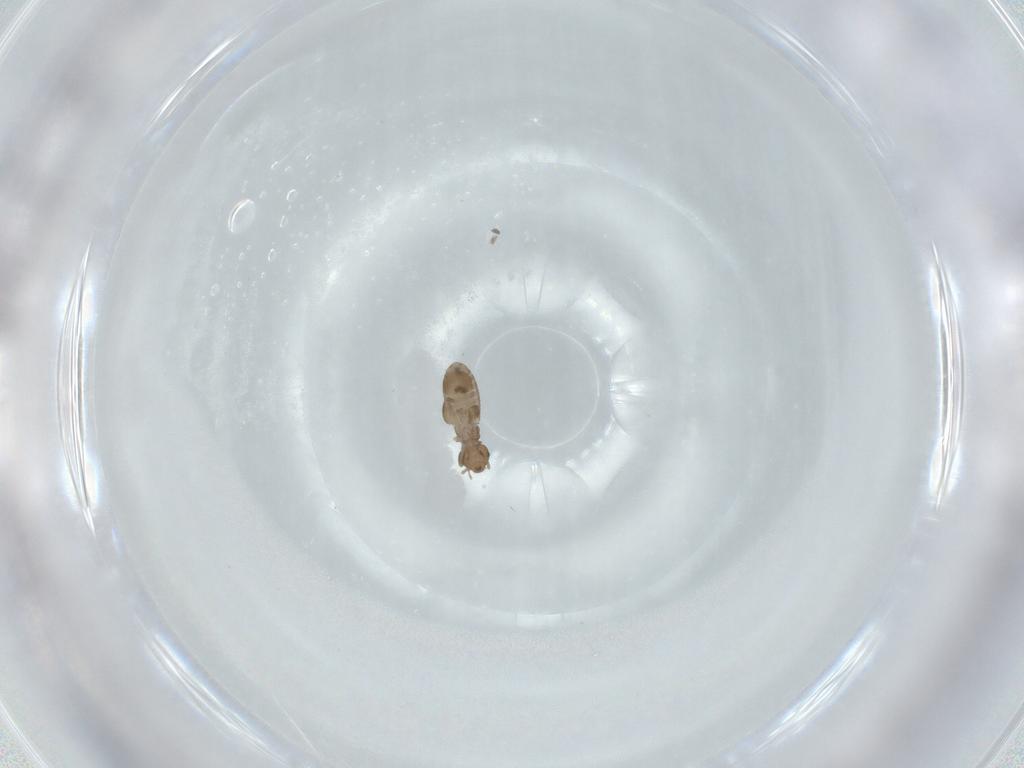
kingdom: Animalia
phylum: Arthropoda
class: Insecta
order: Psocodea
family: Liposcelididae
